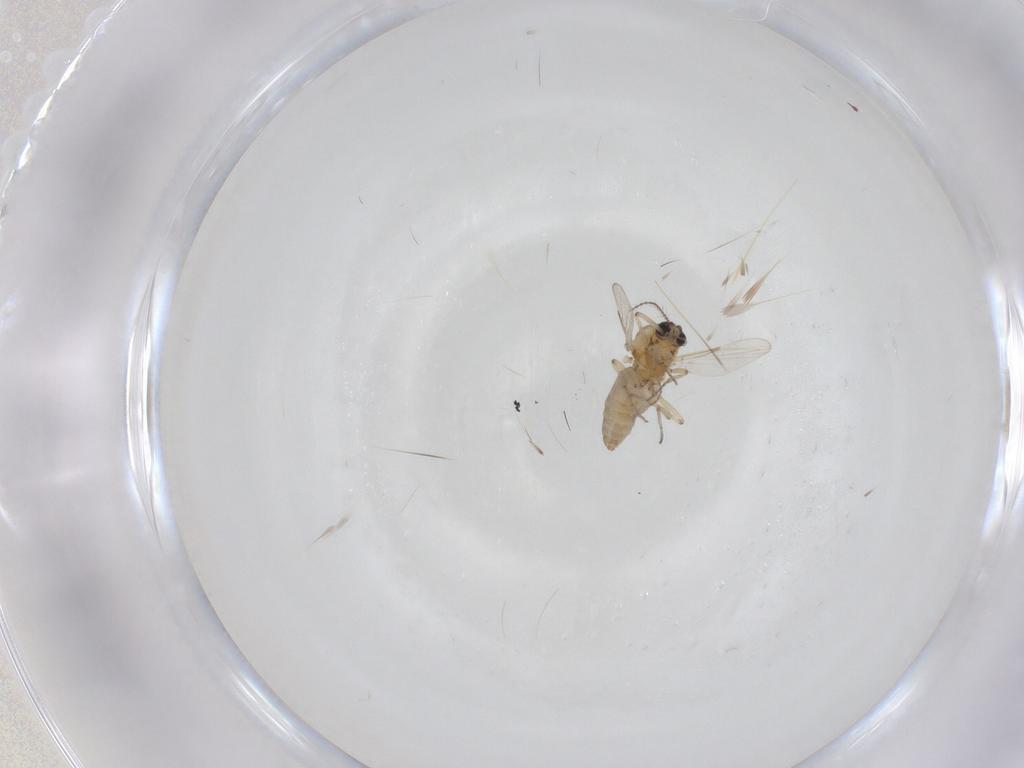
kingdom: Animalia
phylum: Arthropoda
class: Insecta
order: Diptera
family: Ceratopogonidae
